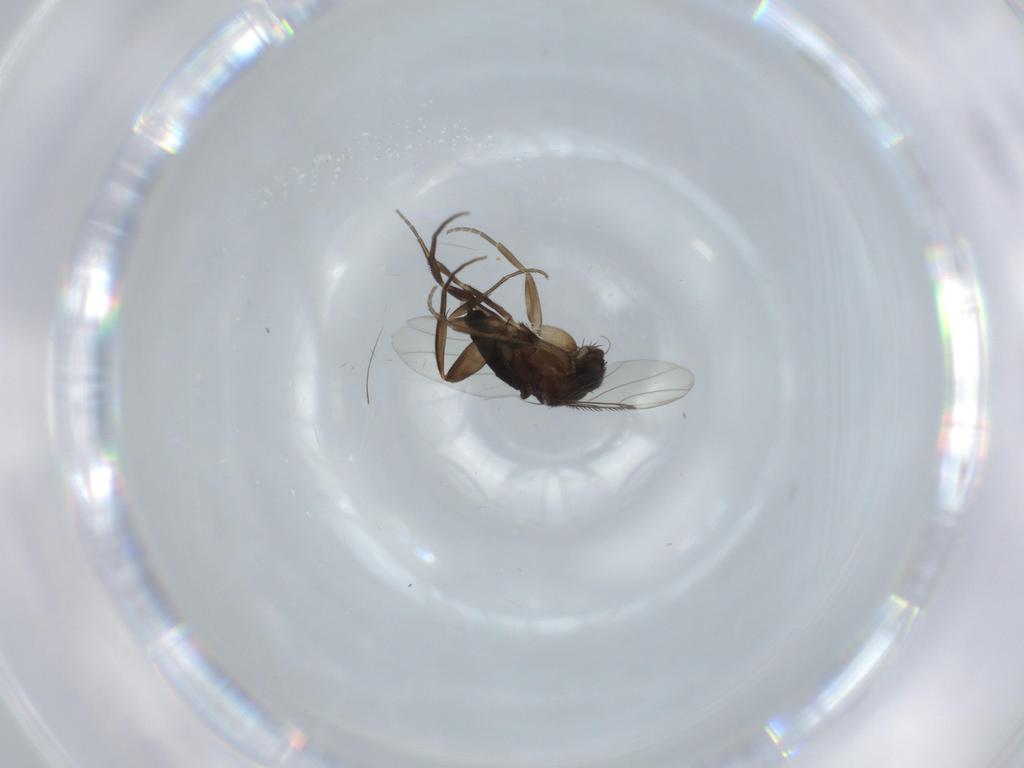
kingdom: Animalia
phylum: Arthropoda
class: Insecta
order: Diptera
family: Phoridae
